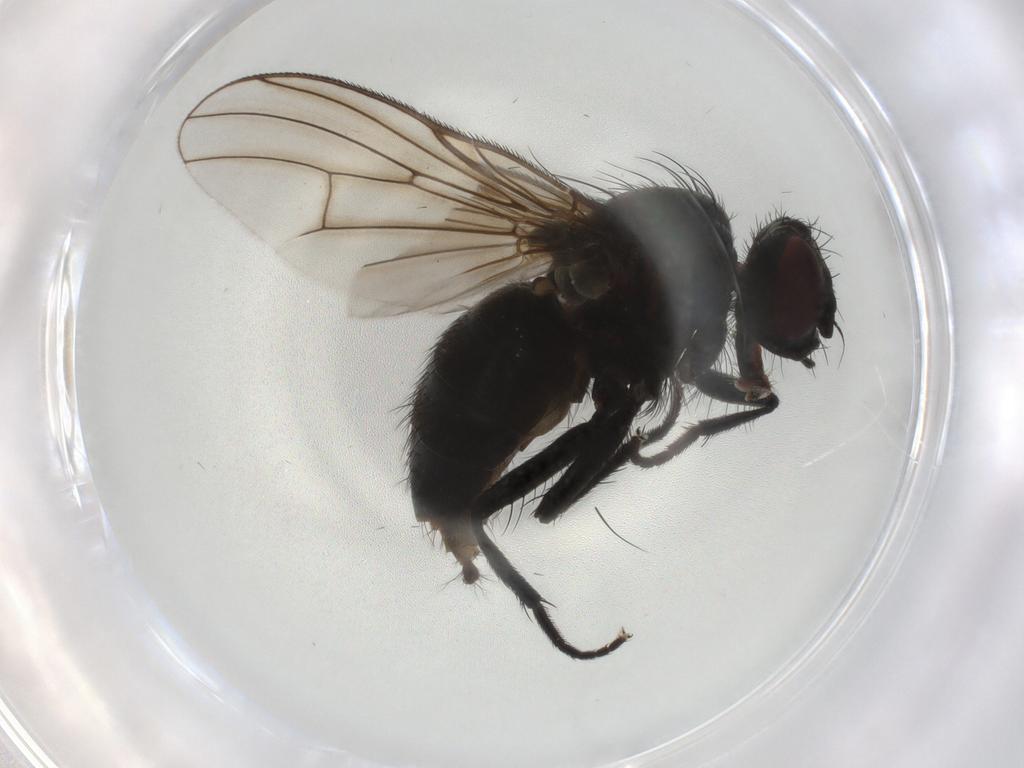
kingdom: Animalia
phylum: Arthropoda
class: Insecta
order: Diptera
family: Muscidae
